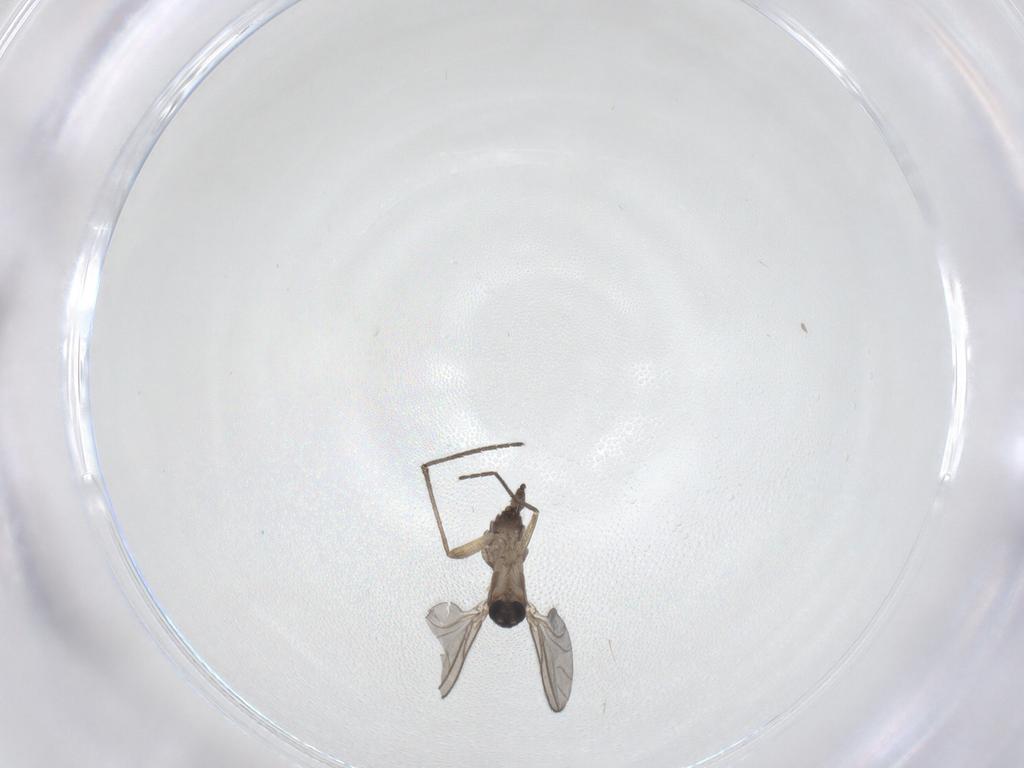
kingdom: Animalia
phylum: Arthropoda
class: Insecta
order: Diptera
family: Sciaridae
